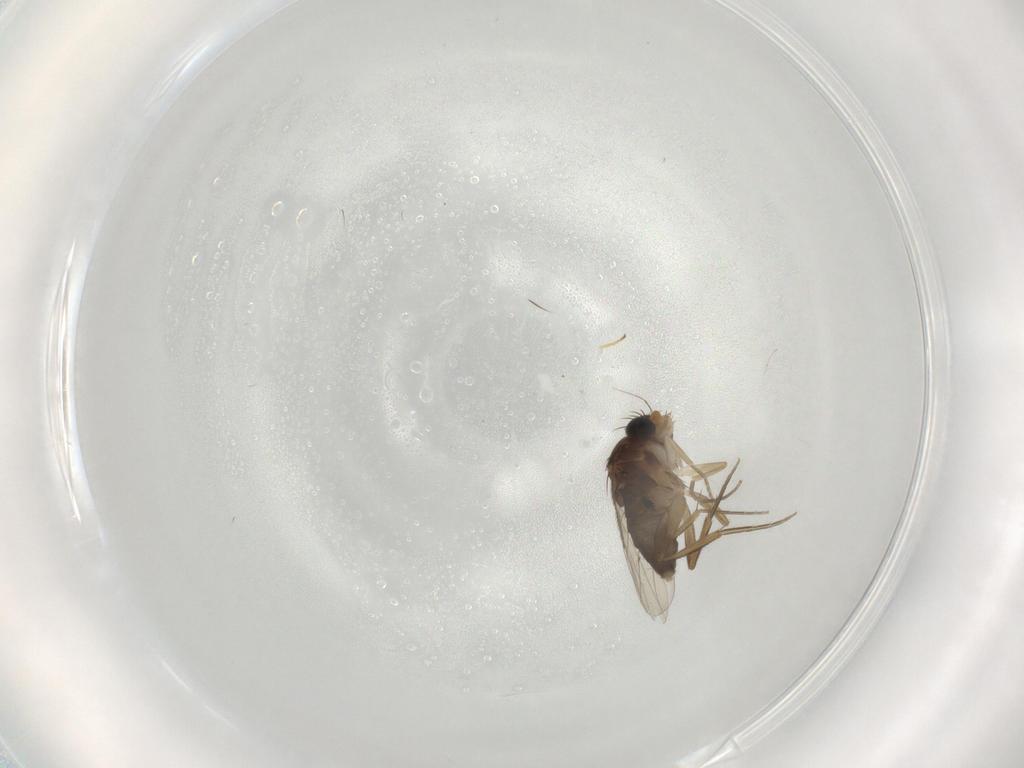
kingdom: Animalia
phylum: Arthropoda
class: Insecta
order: Diptera
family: Phoridae
